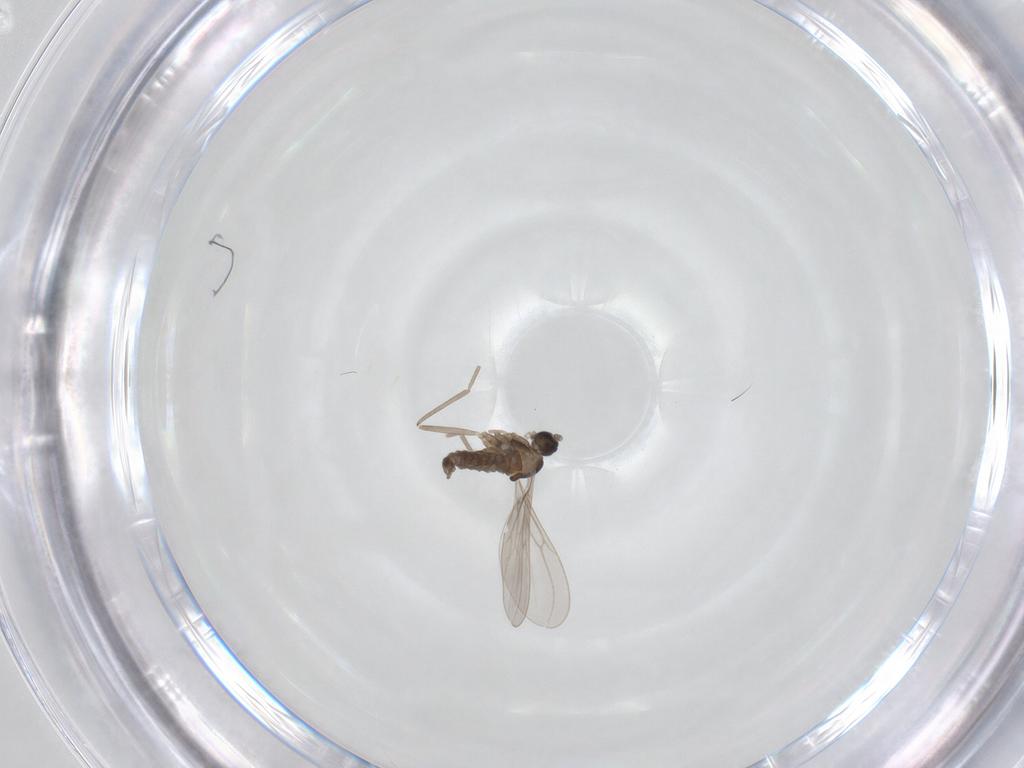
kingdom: Animalia
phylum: Arthropoda
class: Insecta
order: Diptera
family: Cecidomyiidae
